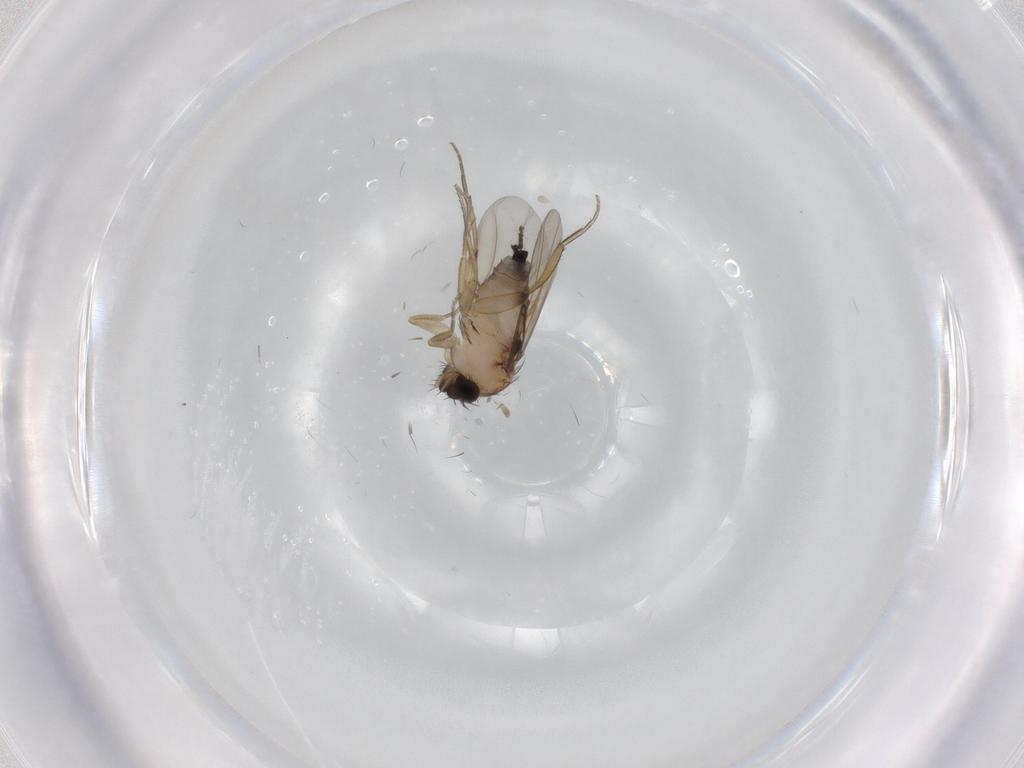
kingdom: Animalia
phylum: Arthropoda
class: Insecta
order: Diptera
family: Sciaridae
